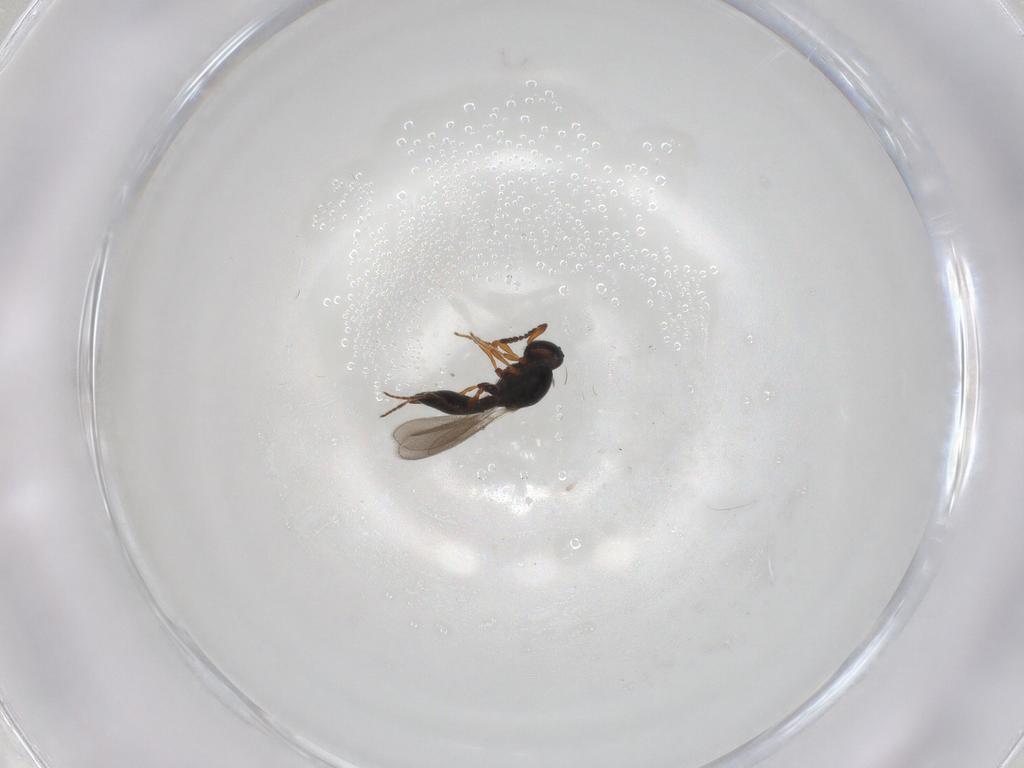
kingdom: Animalia
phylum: Arthropoda
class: Insecta
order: Hymenoptera
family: Platygastridae
